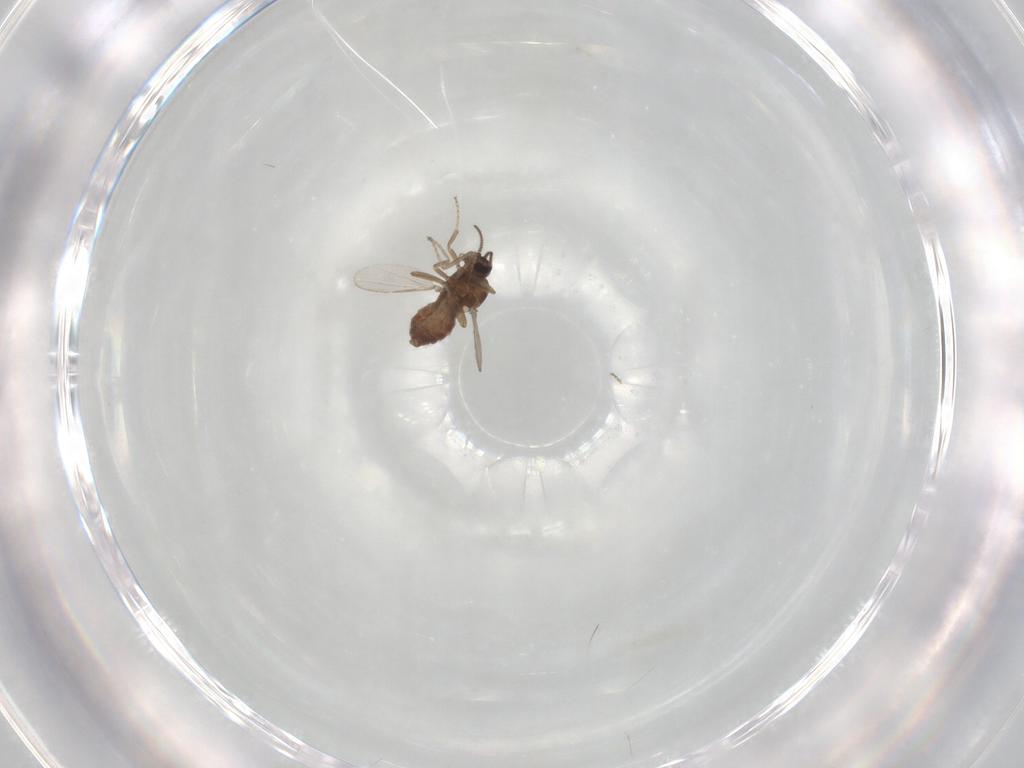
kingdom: Animalia
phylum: Arthropoda
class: Insecta
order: Diptera
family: Ceratopogonidae
